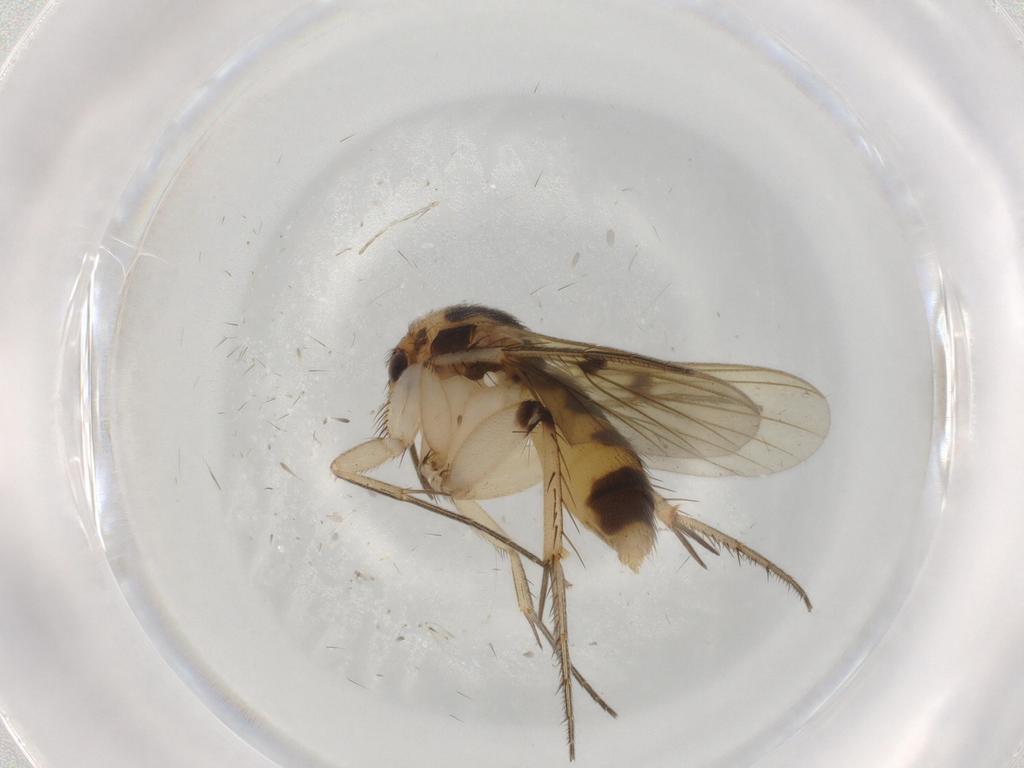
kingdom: Animalia
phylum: Arthropoda
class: Insecta
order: Diptera
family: Mycetophilidae
